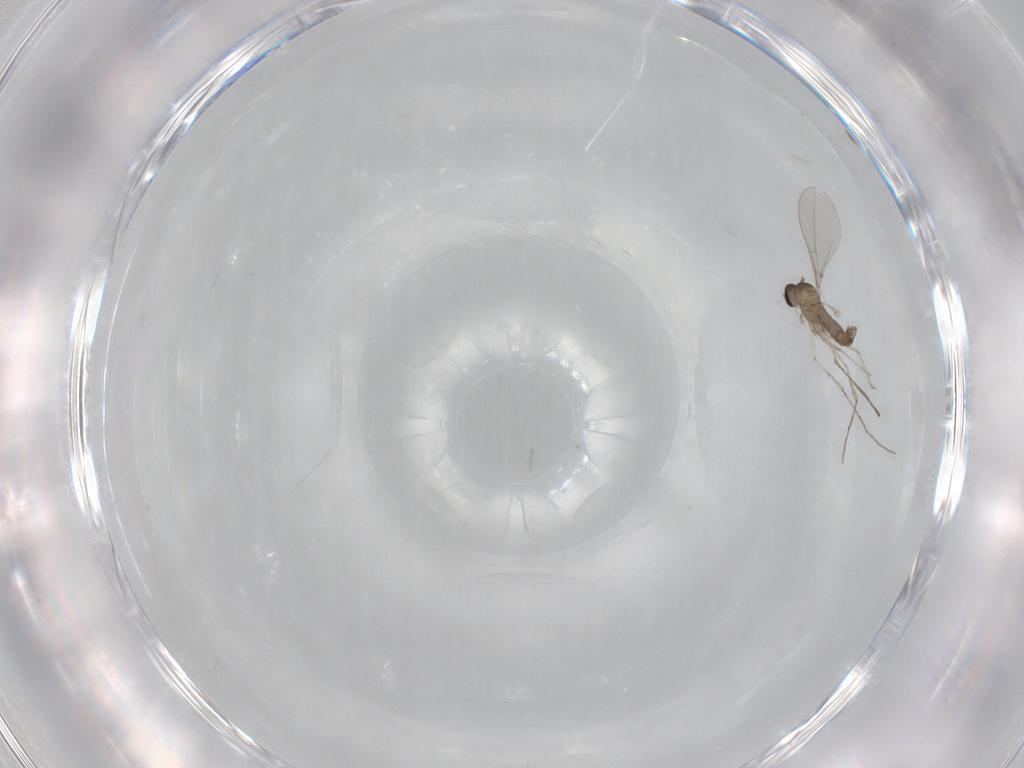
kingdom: Animalia
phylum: Arthropoda
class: Insecta
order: Diptera
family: Cecidomyiidae
